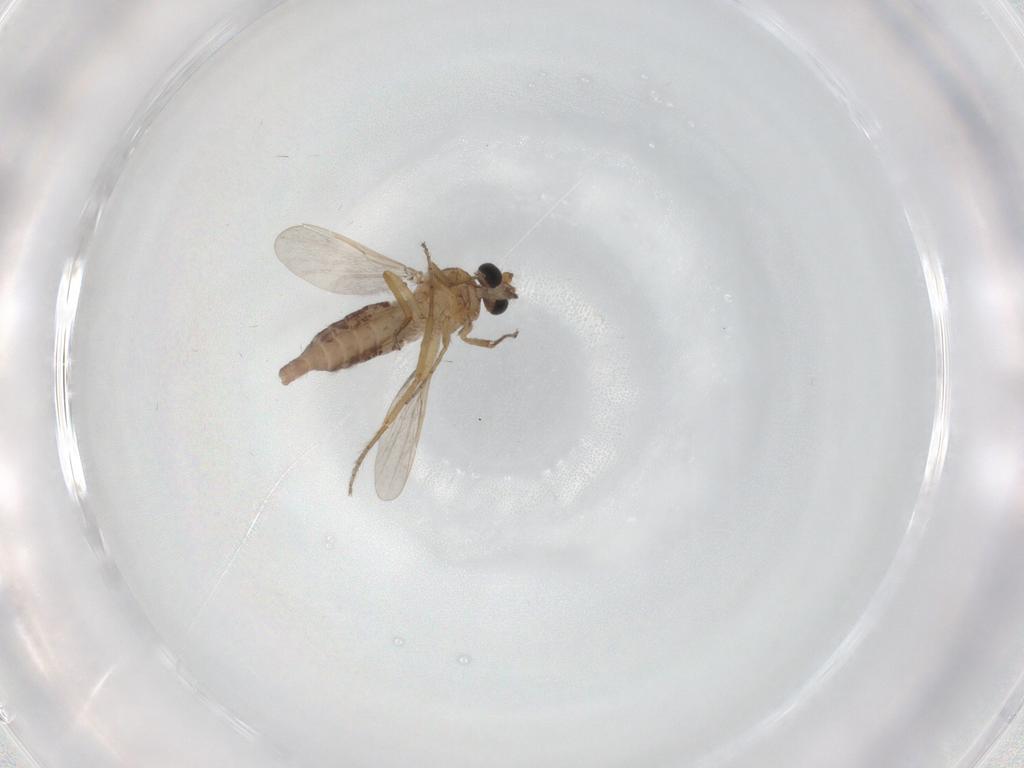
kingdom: Animalia
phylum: Arthropoda
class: Insecta
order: Diptera
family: Ceratopogonidae
